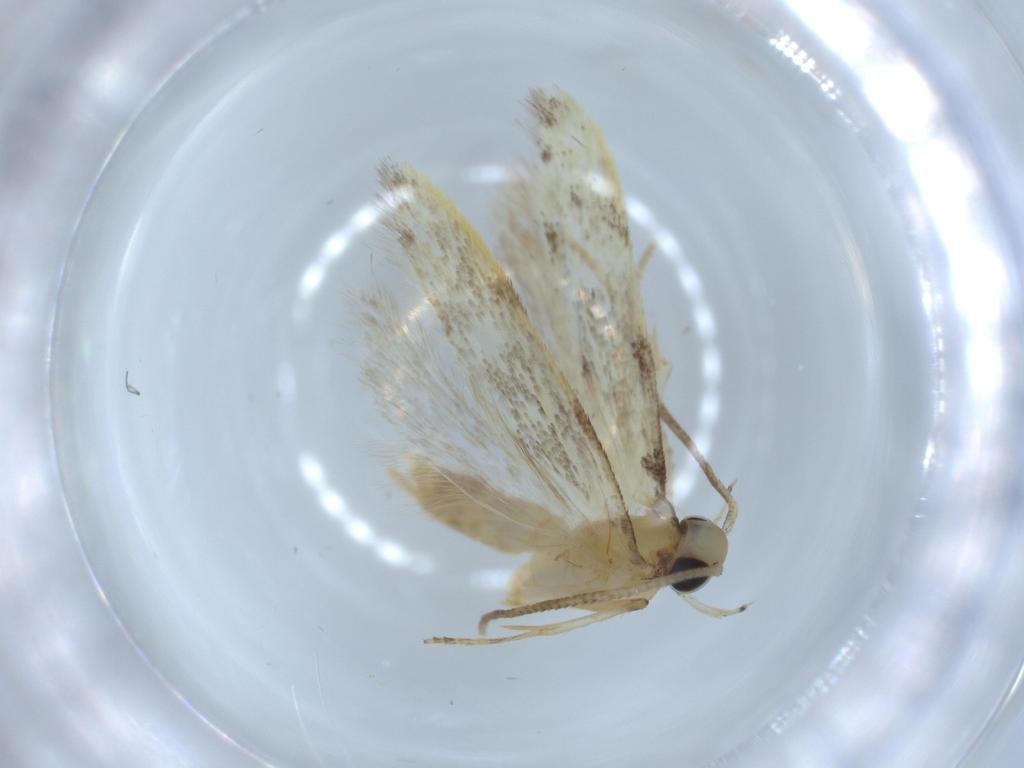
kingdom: Animalia
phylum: Arthropoda
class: Insecta
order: Lepidoptera
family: Autostichidae
